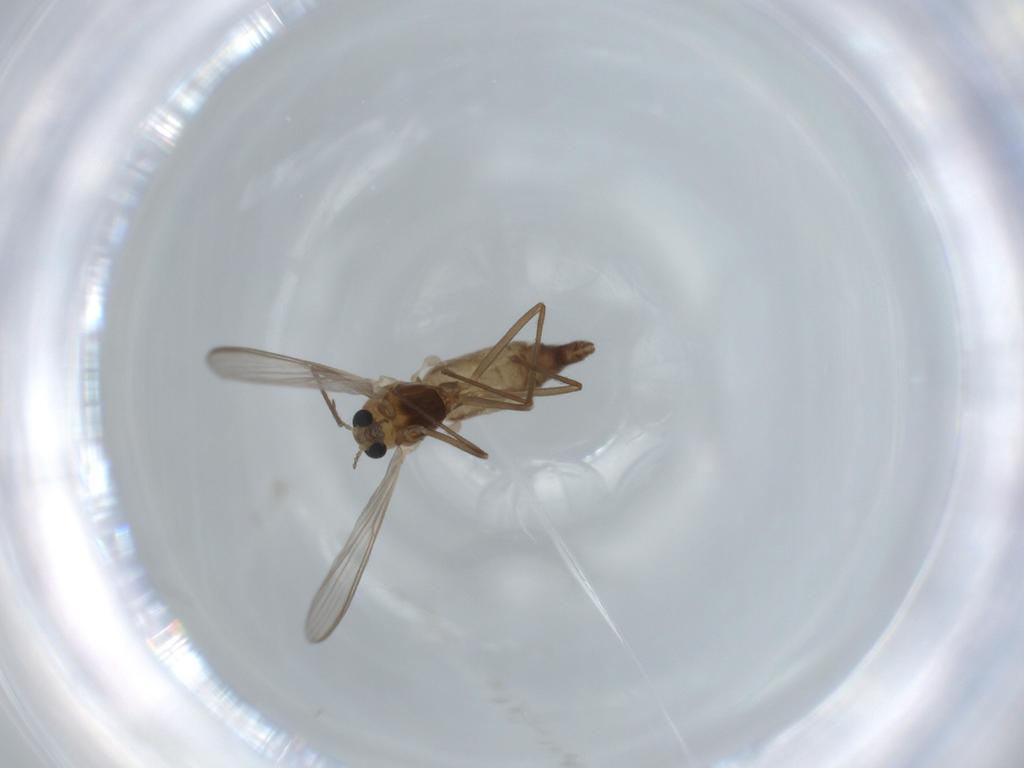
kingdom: Animalia
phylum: Arthropoda
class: Insecta
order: Diptera
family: Chironomidae
